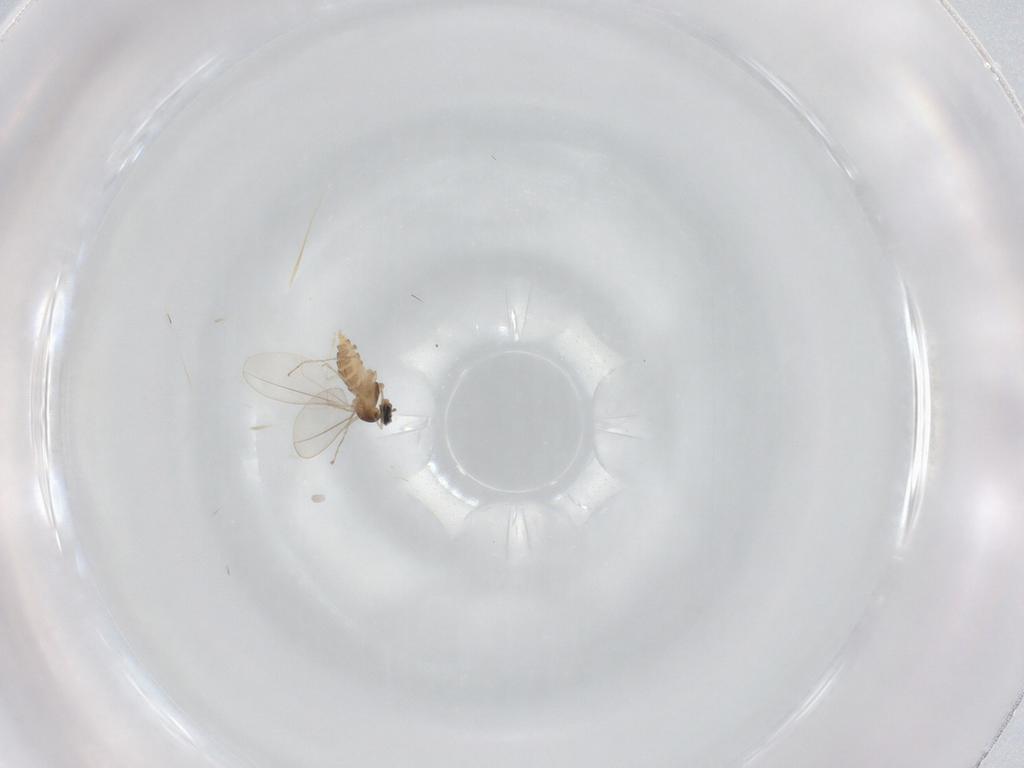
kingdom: Animalia
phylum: Arthropoda
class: Insecta
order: Diptera
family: Cecidomyiidae
